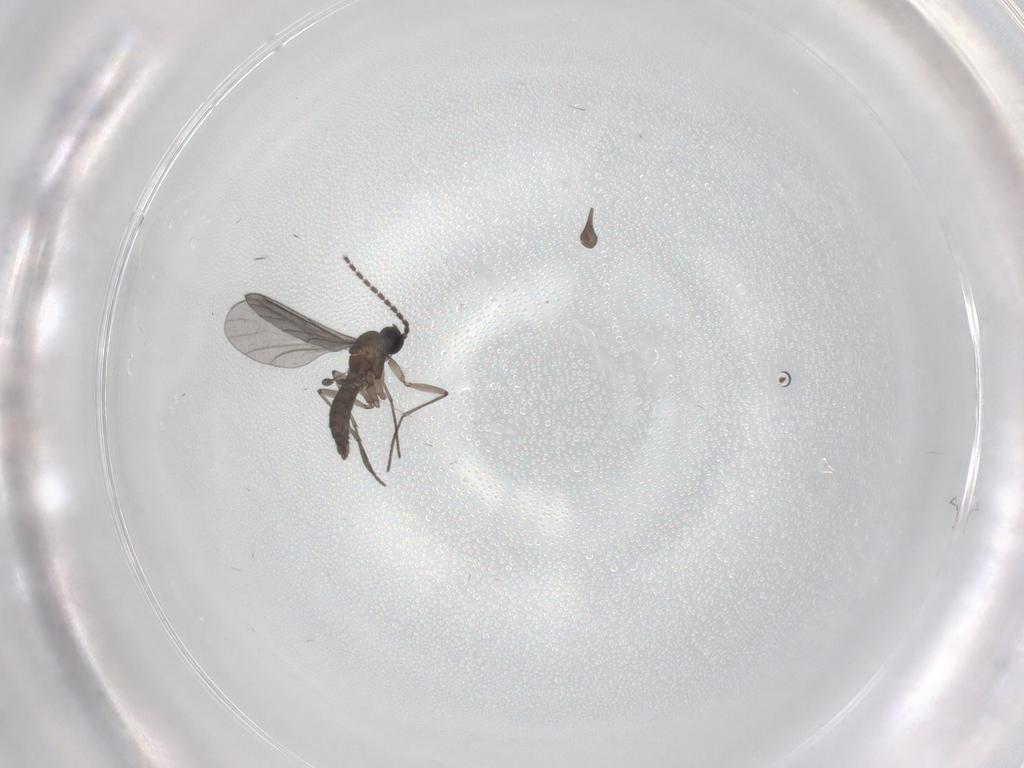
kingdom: Animalia
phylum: Arthropoda
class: Insecta
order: Diptera
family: Sciaridae
